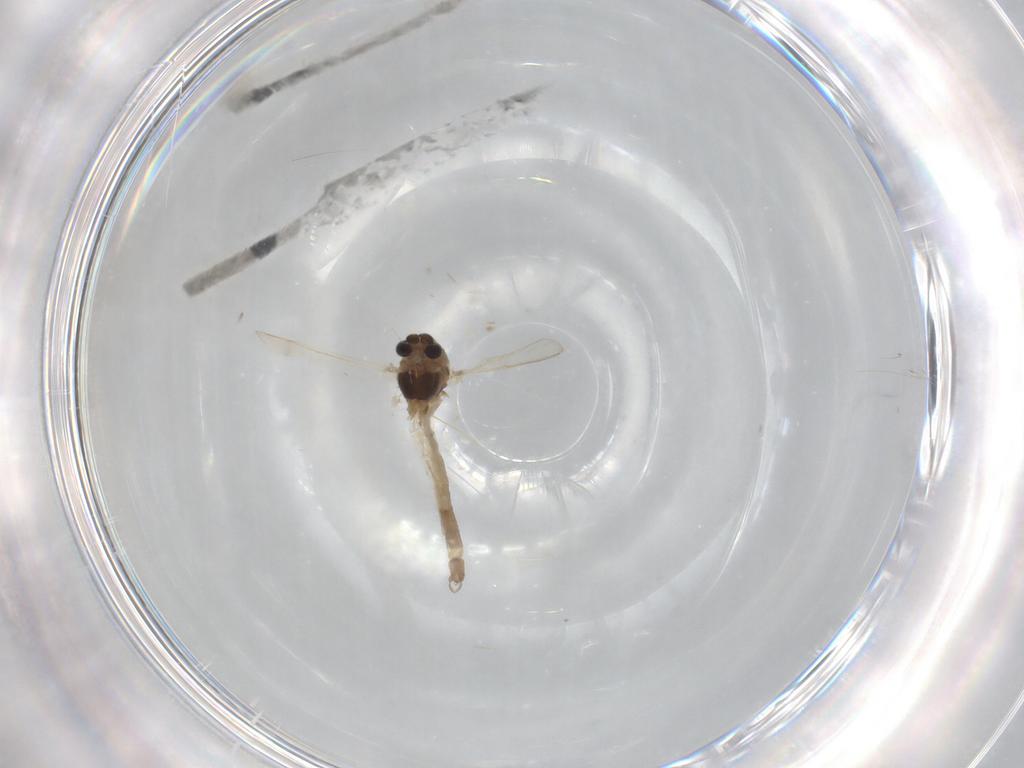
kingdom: Animalia
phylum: Arthropoda
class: Insecta
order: Diptera
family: Chironomidae
